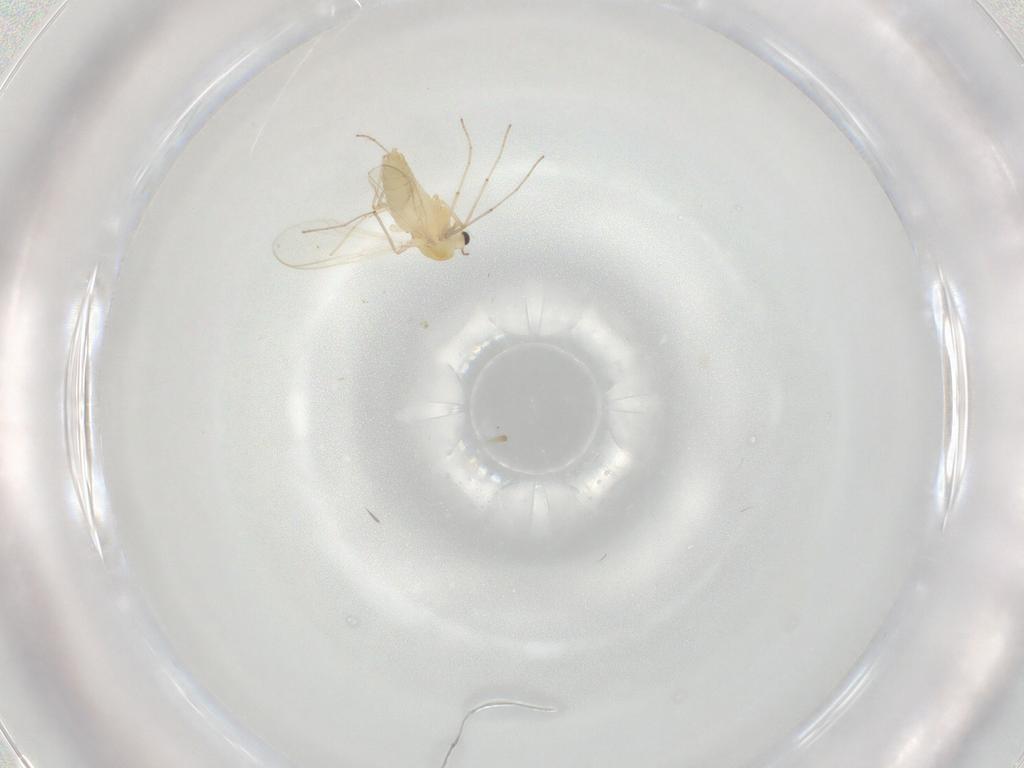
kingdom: Animalia
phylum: Arthropoda
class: Insecta
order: Diptera
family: Chironomidae
